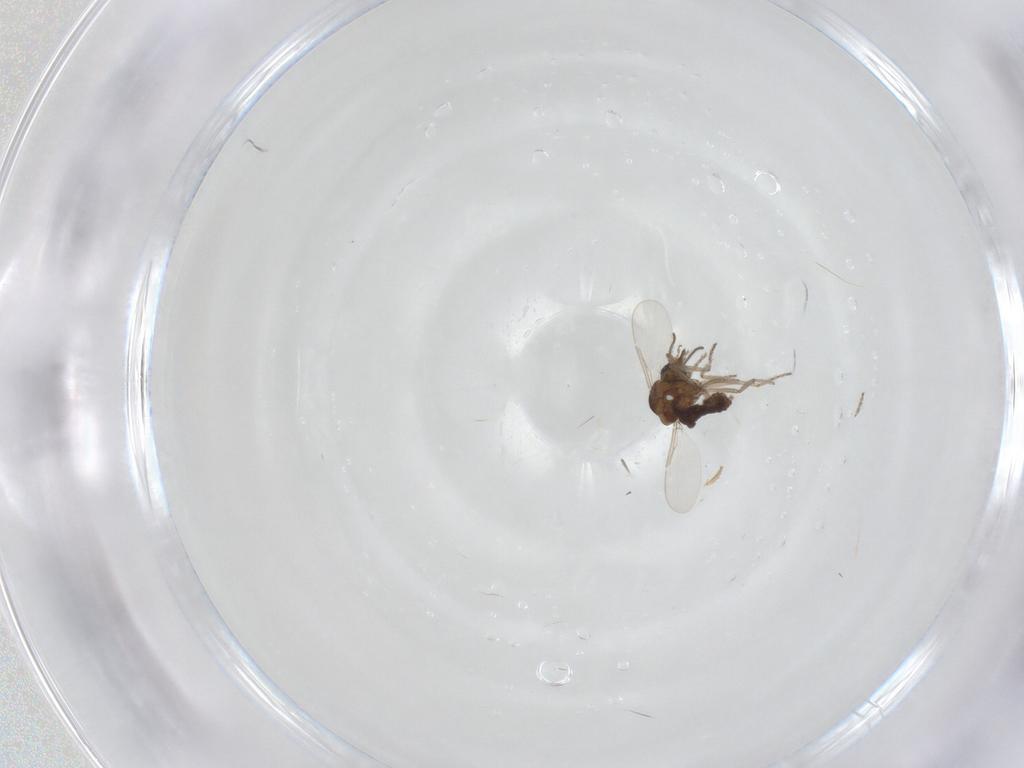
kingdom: Animalia
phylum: Arthropoda
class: Insecta
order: Diptera
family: Ceratopogonidae
